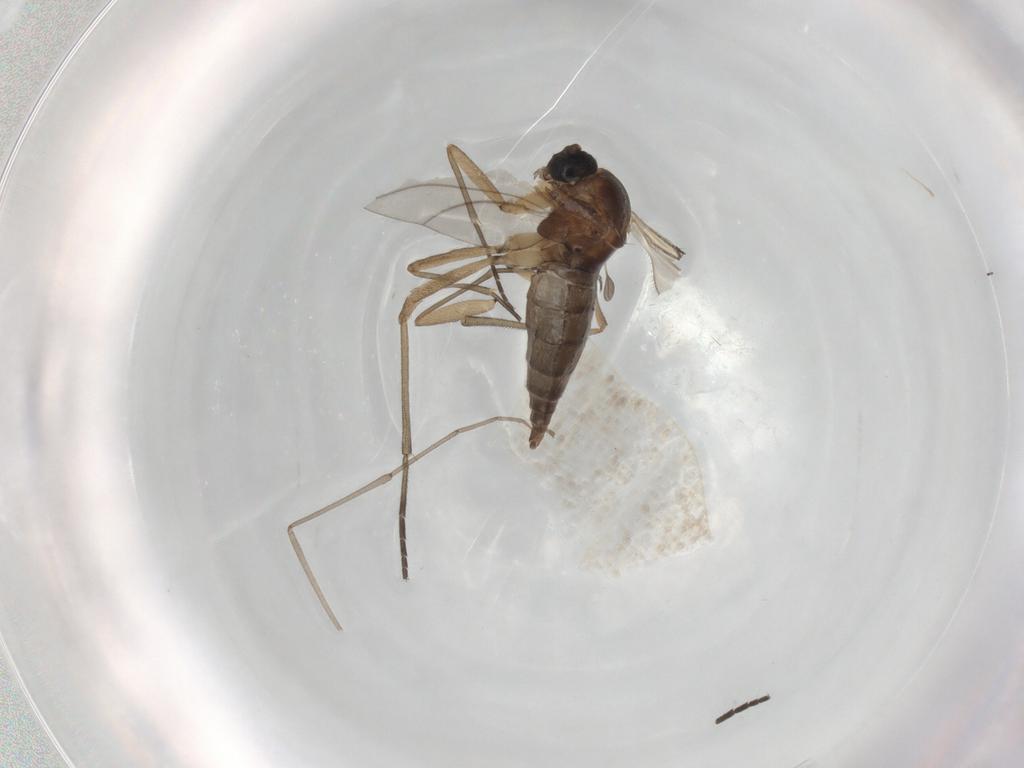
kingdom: Animalia
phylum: Arthropoda
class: Insecta
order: Diptera
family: Sciaridae
